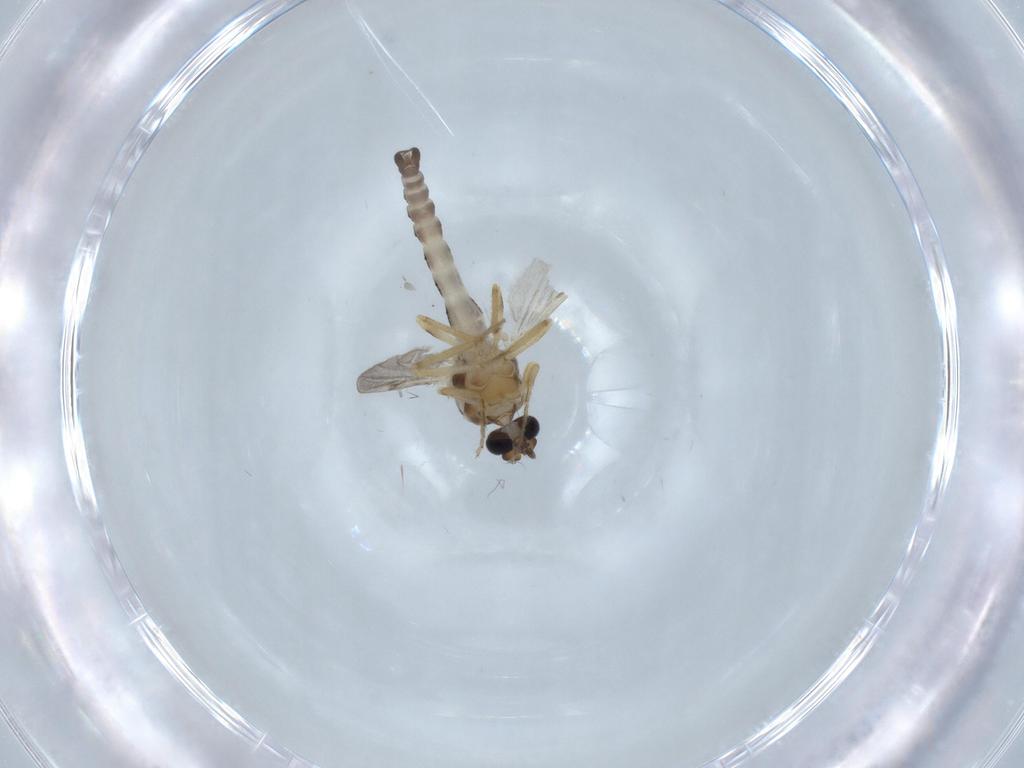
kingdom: Animalia
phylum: Arthropoda
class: Insecta
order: Diptera
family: Ceratopogonidae
